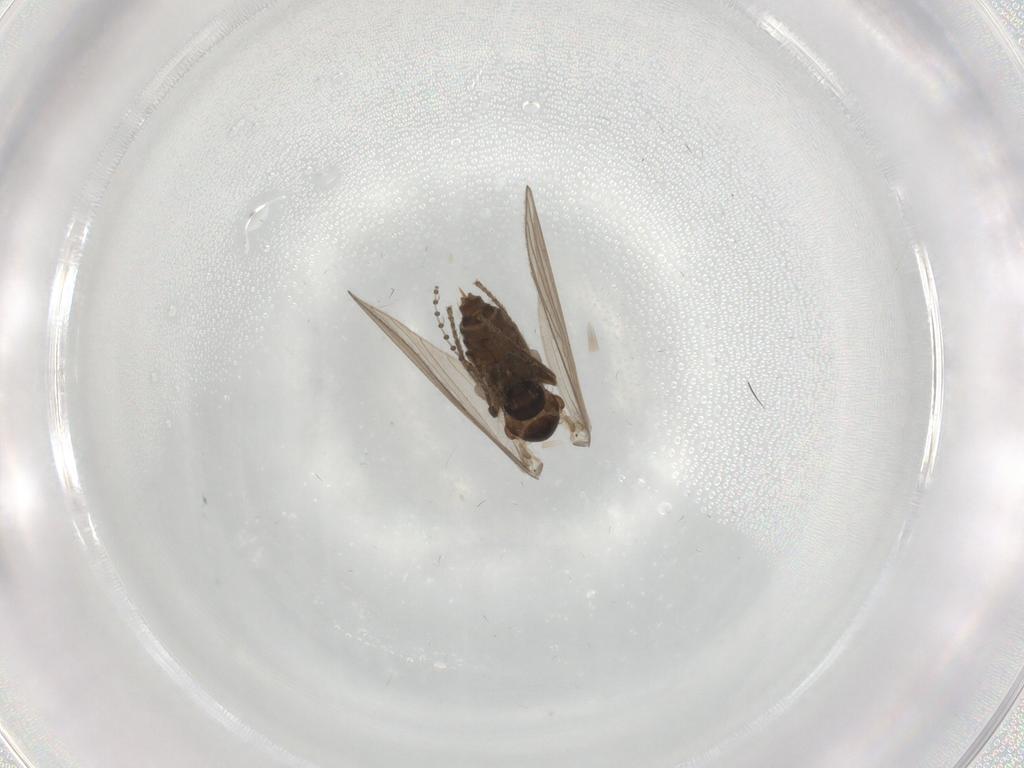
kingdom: Animalia
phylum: Arthropoda
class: Insecta
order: Diptera
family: Psychodidae
